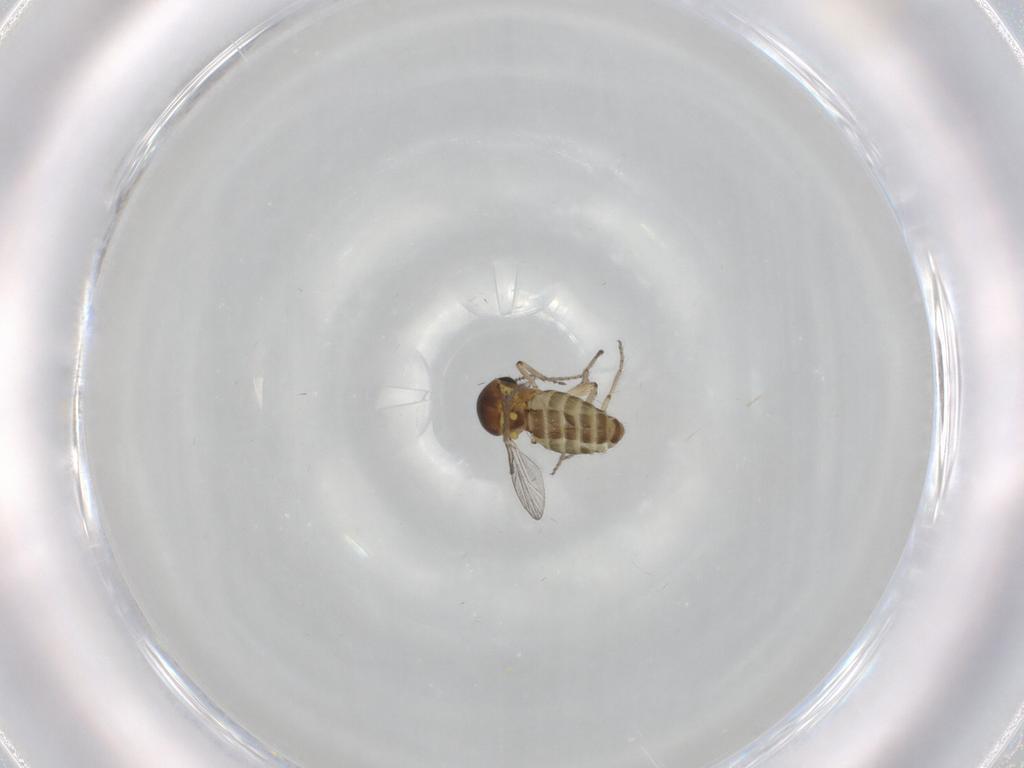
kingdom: Animalia
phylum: Arthropoda
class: Insecta
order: Diptera
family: Ceratopogonidae
